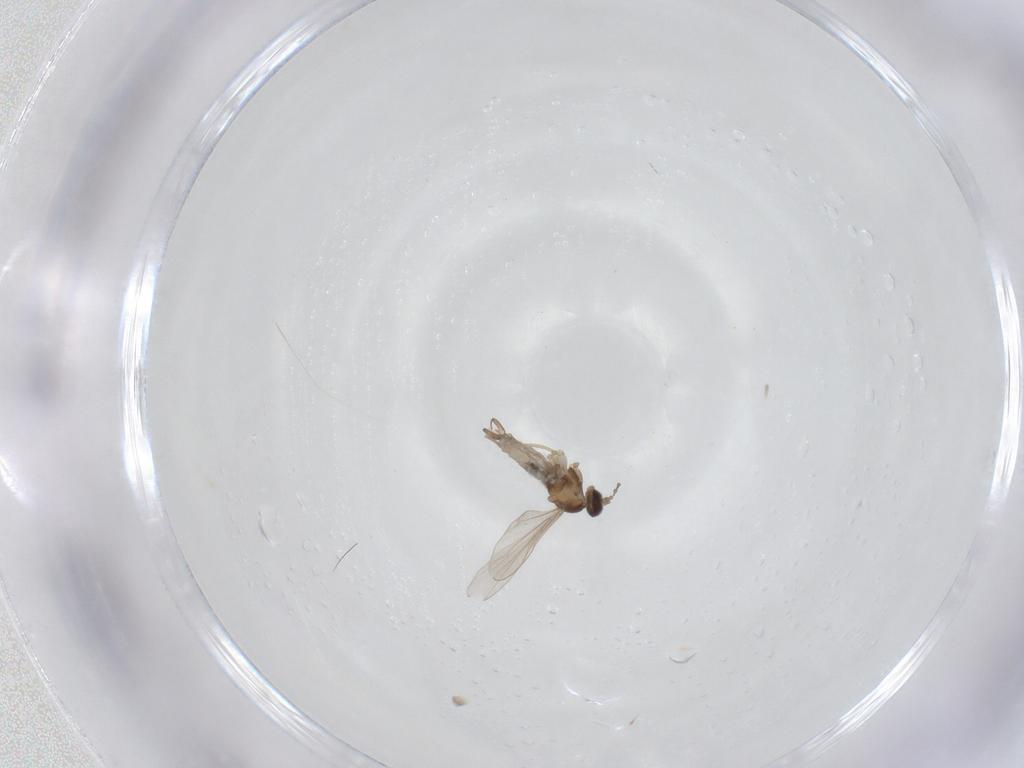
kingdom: Animalia
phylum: Arthropoda
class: Insecta
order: Diptera
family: Cecidomyiidae
